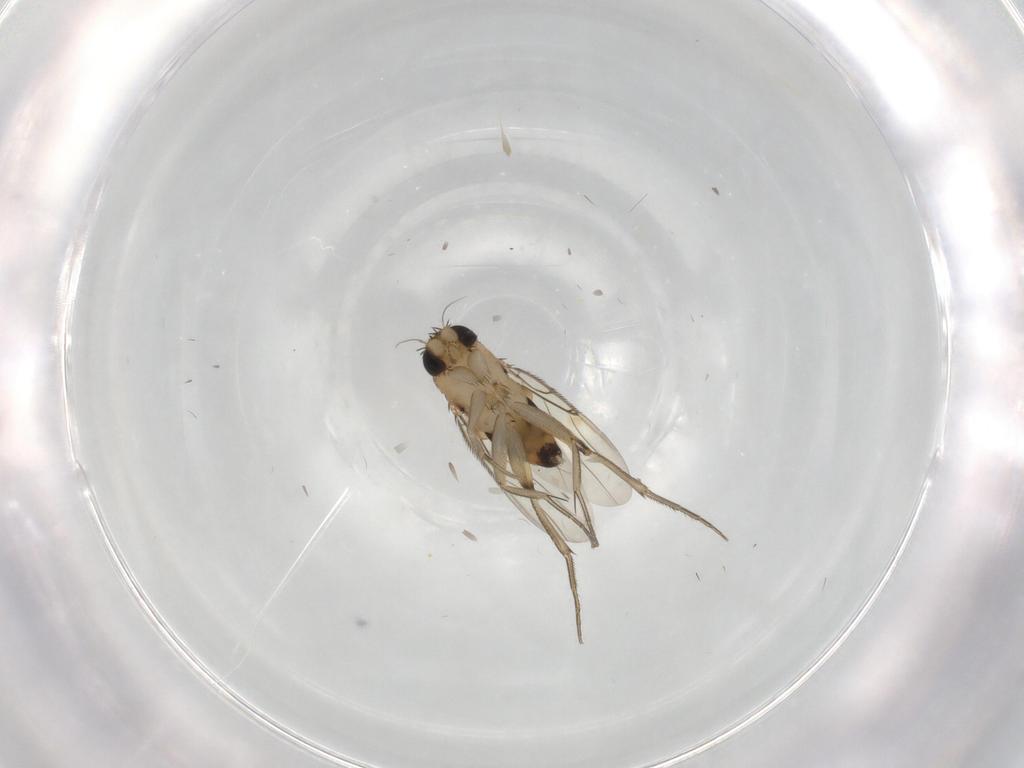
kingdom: Animalia
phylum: Arthropoda
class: Insecta
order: Diptera
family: Phoridae
